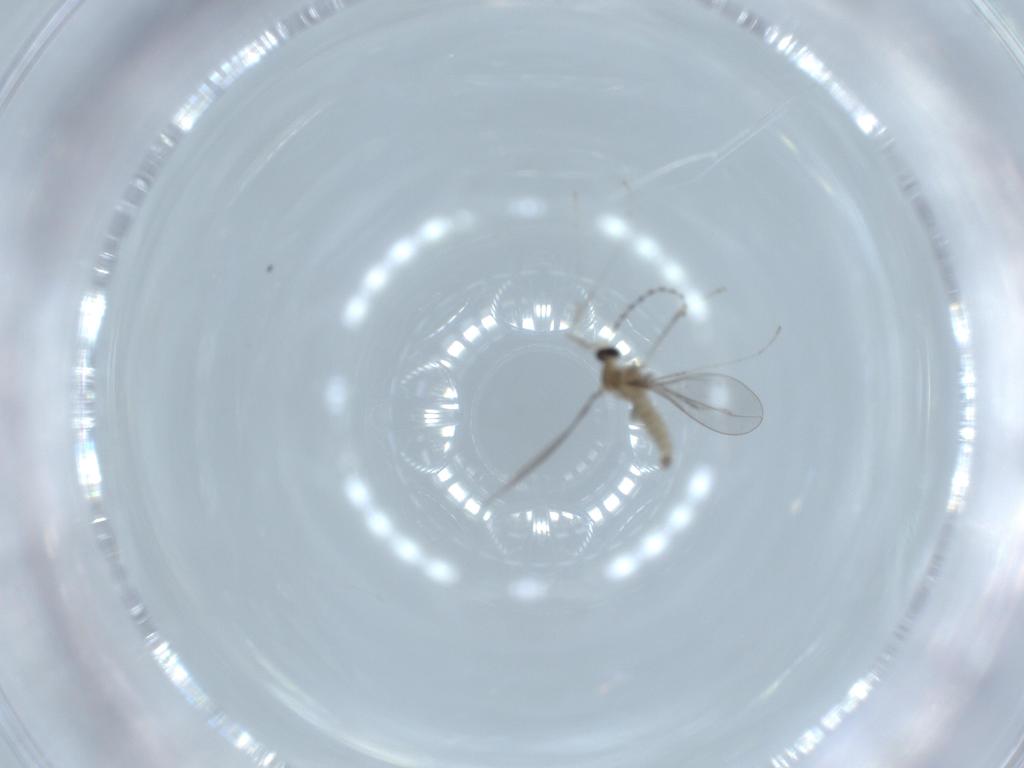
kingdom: Animalia
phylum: Arthropoda
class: Insecta
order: Diptera
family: Cecidomyiidae
